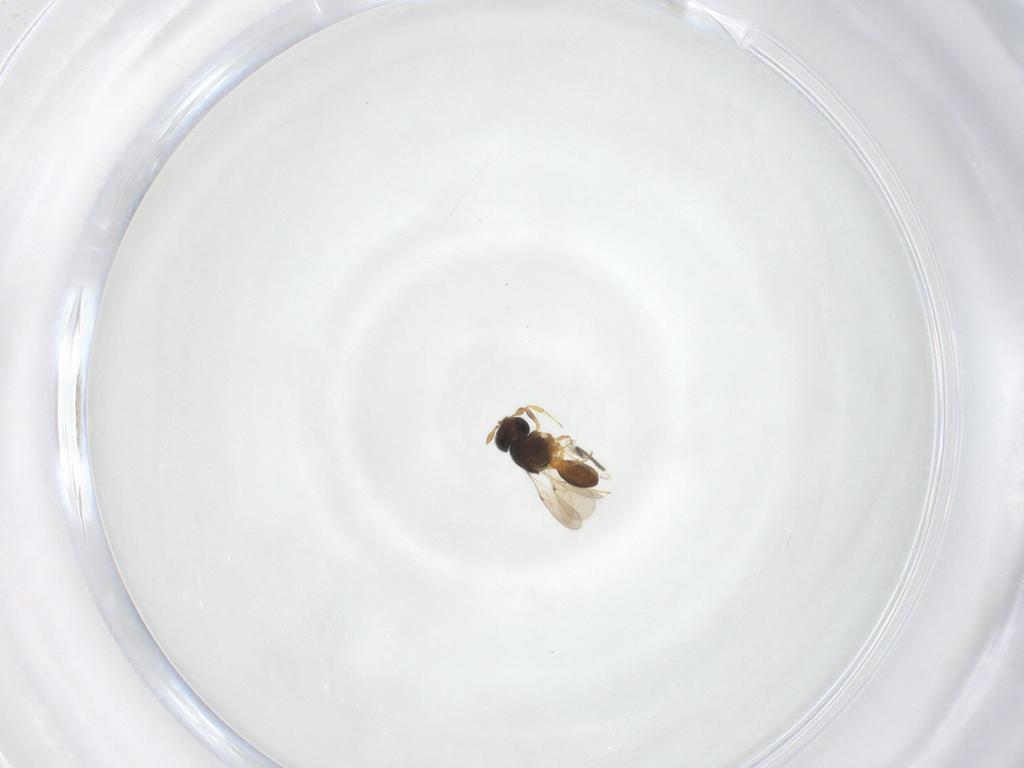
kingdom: Animalia
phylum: Arthropoda
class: Insecta
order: Hymenoptera
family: Scelionidae
